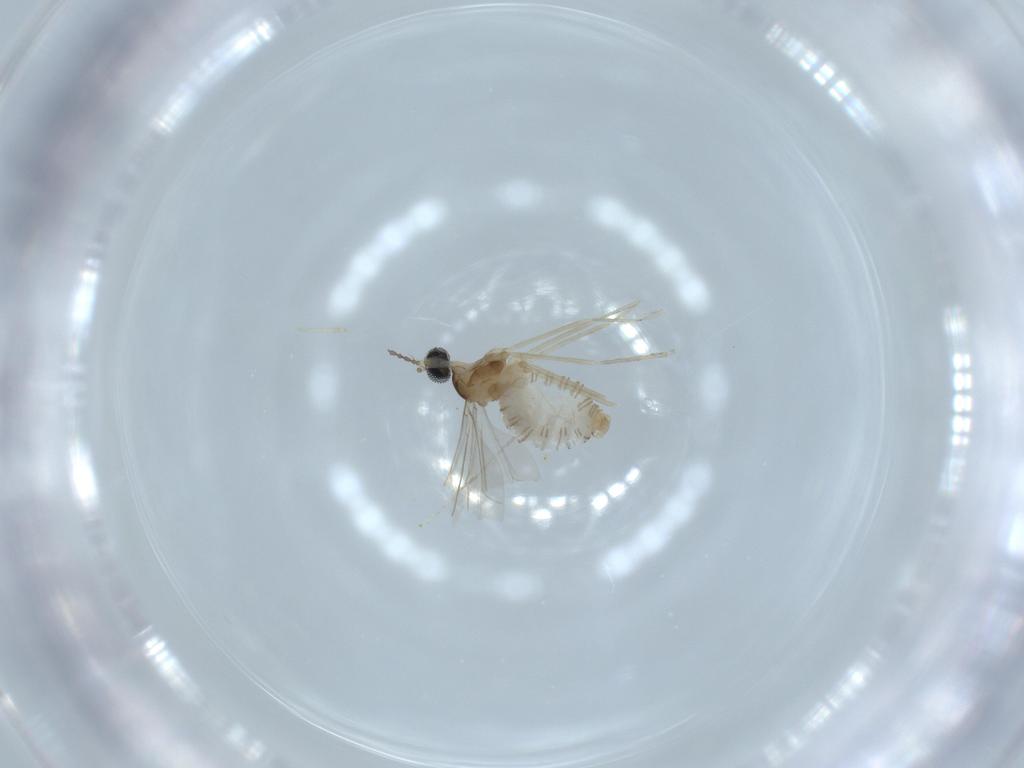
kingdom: Animalia
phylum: Arthropoda
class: Insecta
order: Diptera
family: Cecidomyiidae
